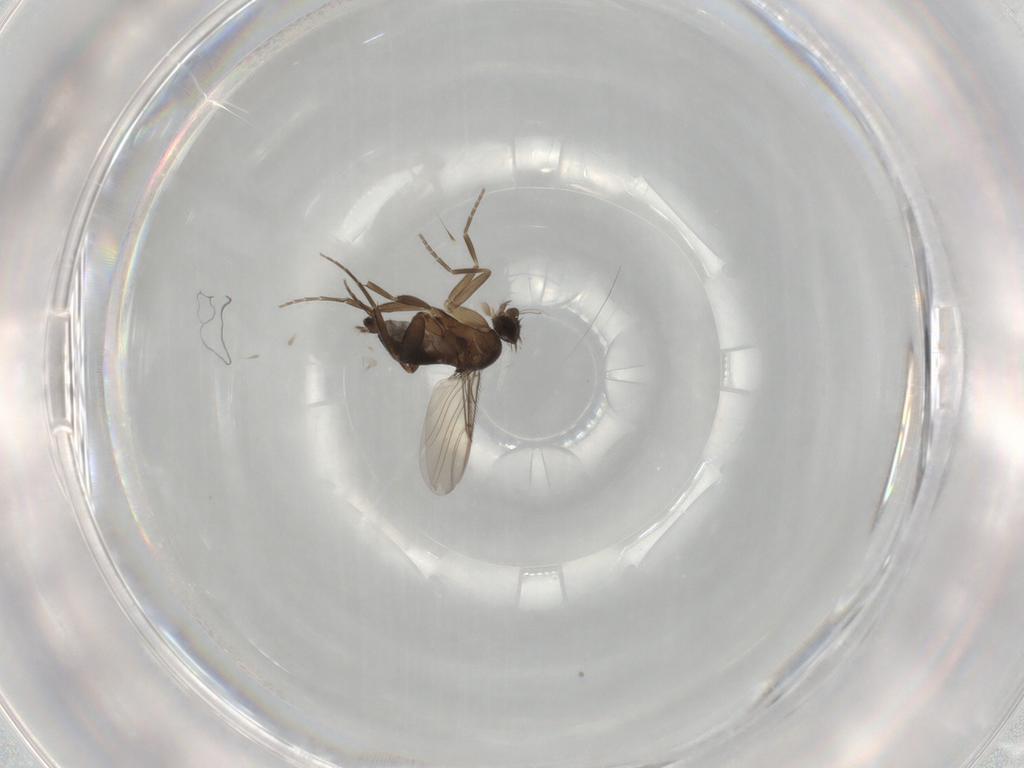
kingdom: Animalia
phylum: Arthropoda
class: Insecta
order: Diptera
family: Phoridae
